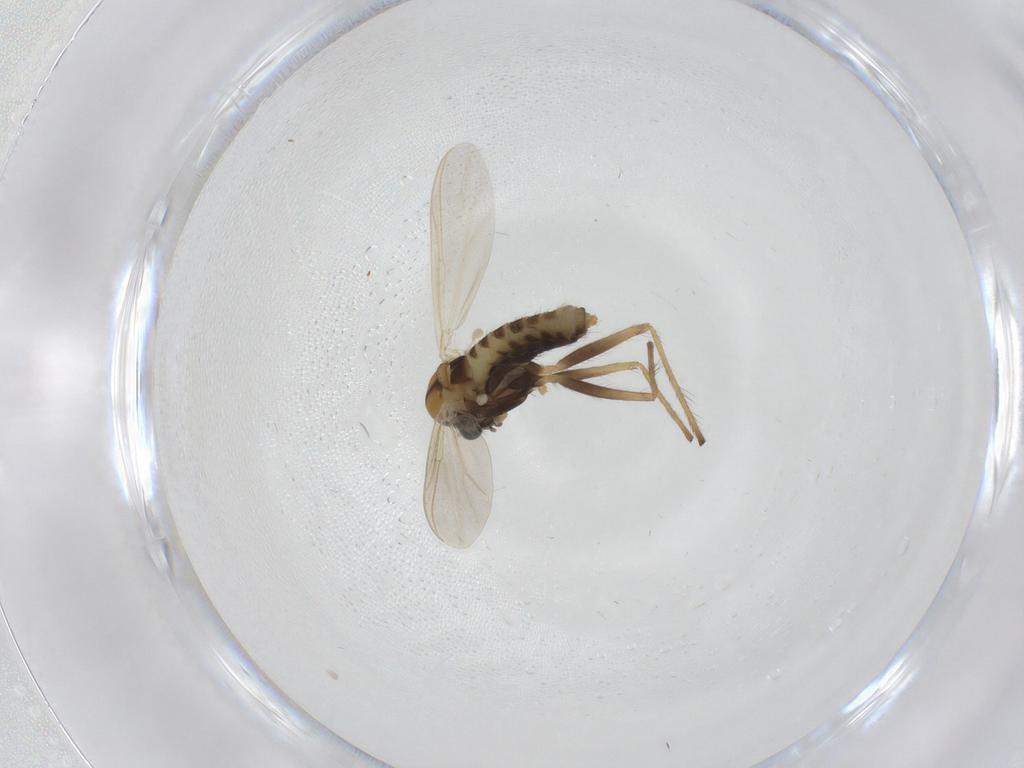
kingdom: Animalia
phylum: Arthropoda
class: Insecta
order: Diptera
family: Chironomidae
